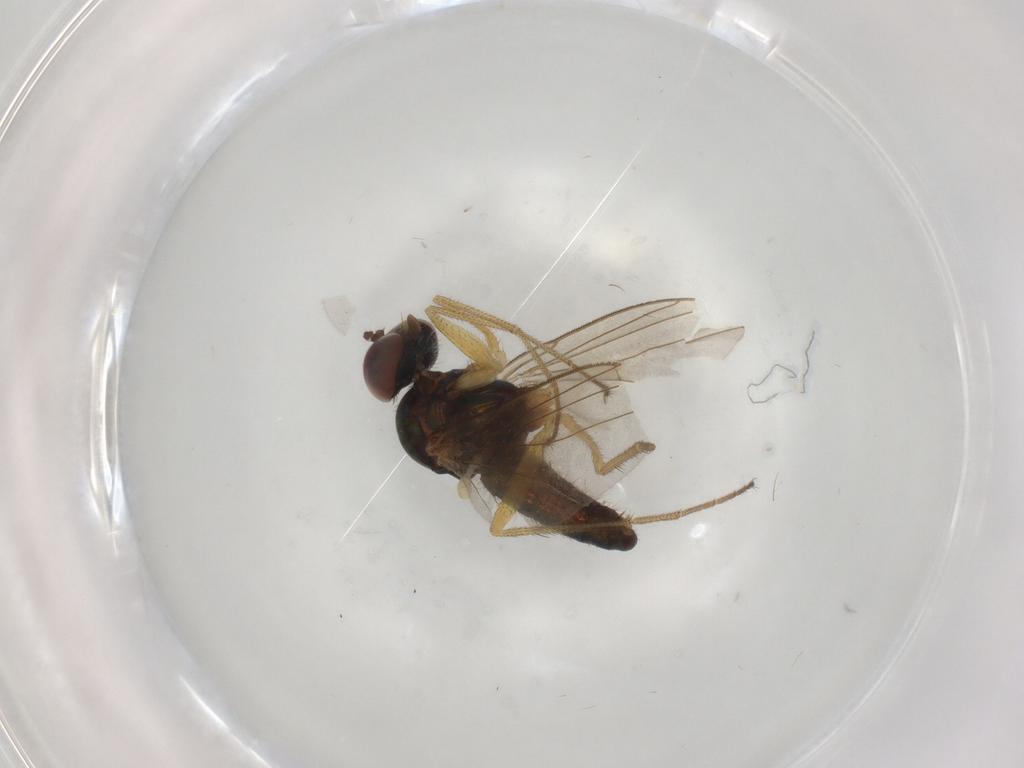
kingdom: Animalia
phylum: Arthropoda
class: Insecta
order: Diptera
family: Dolichopodidae
